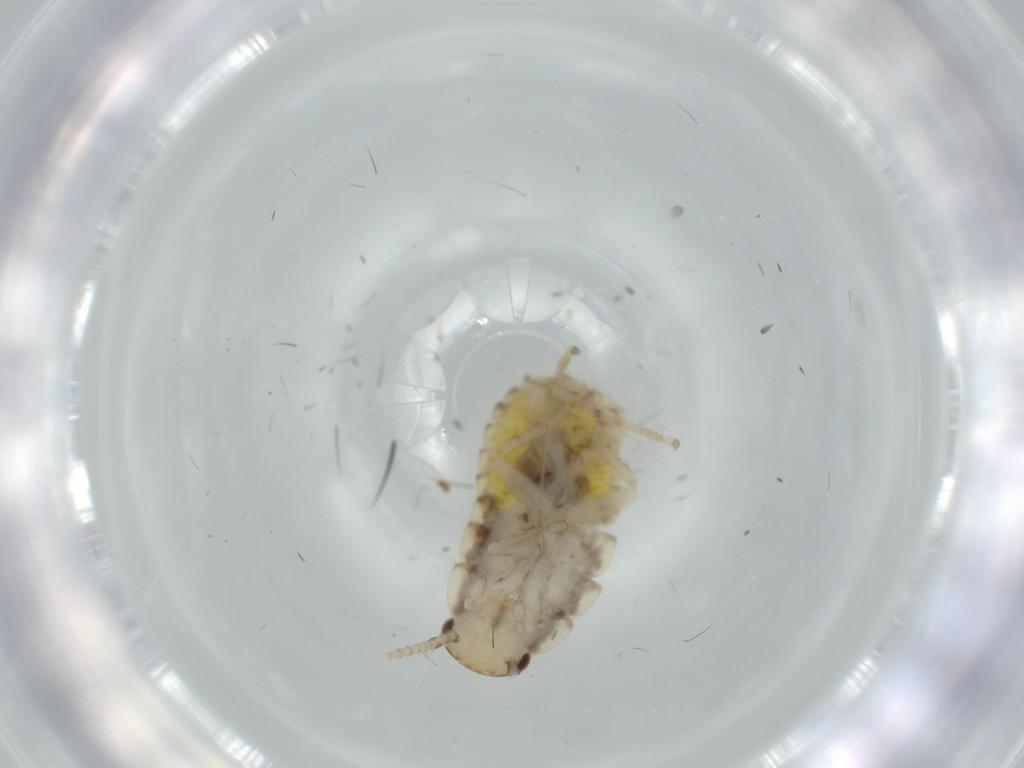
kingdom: Animalia
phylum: Arthropoda
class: Insecta
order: Blattodea
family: Ectobiidae
